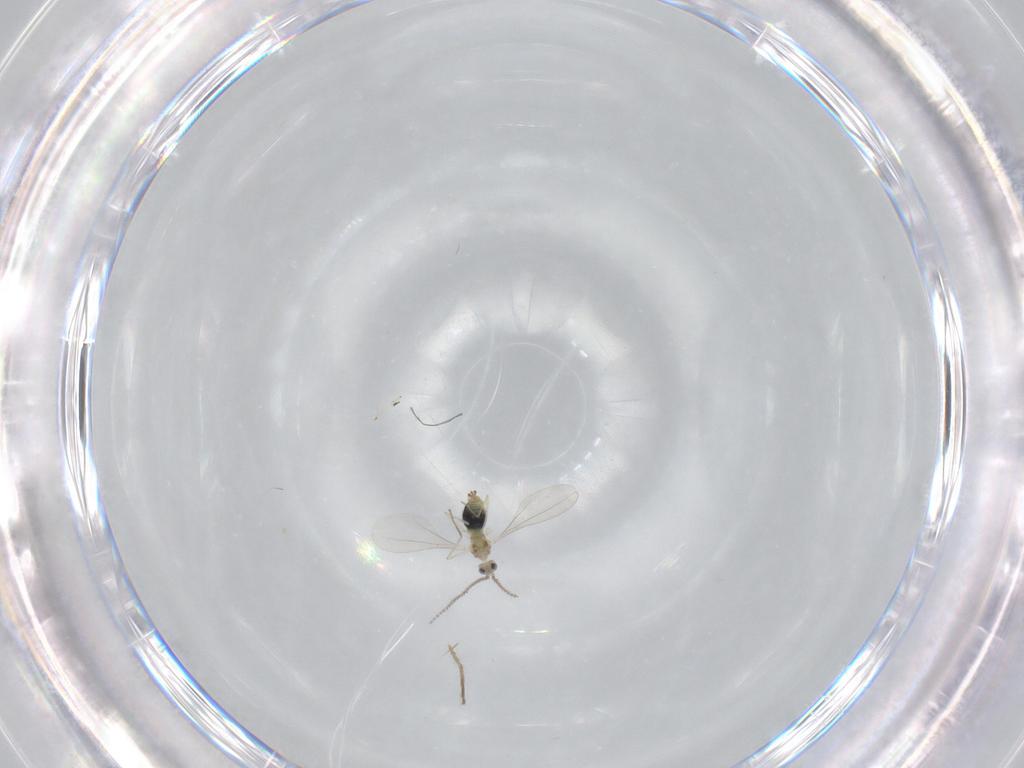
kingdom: Animalia
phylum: Arthropoda
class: Insecta
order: Diptera
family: Cecidomyiidae
